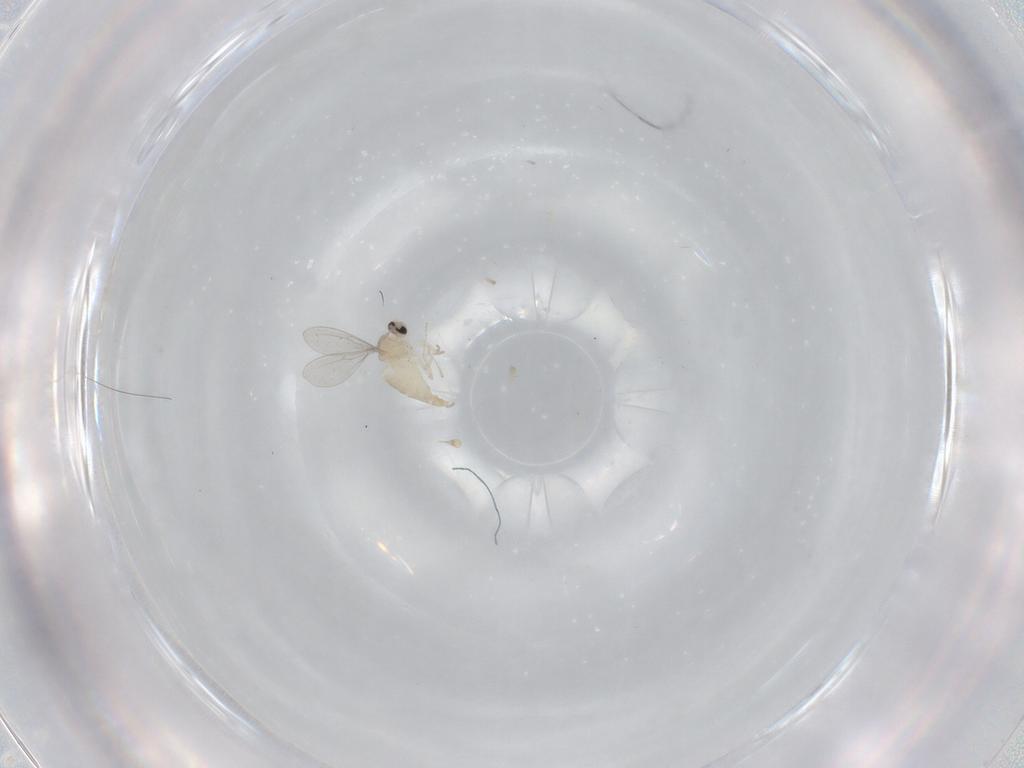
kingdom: Animalia
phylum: Arthropoda
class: Insecta
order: Diptera
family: Cecidomyiidae
